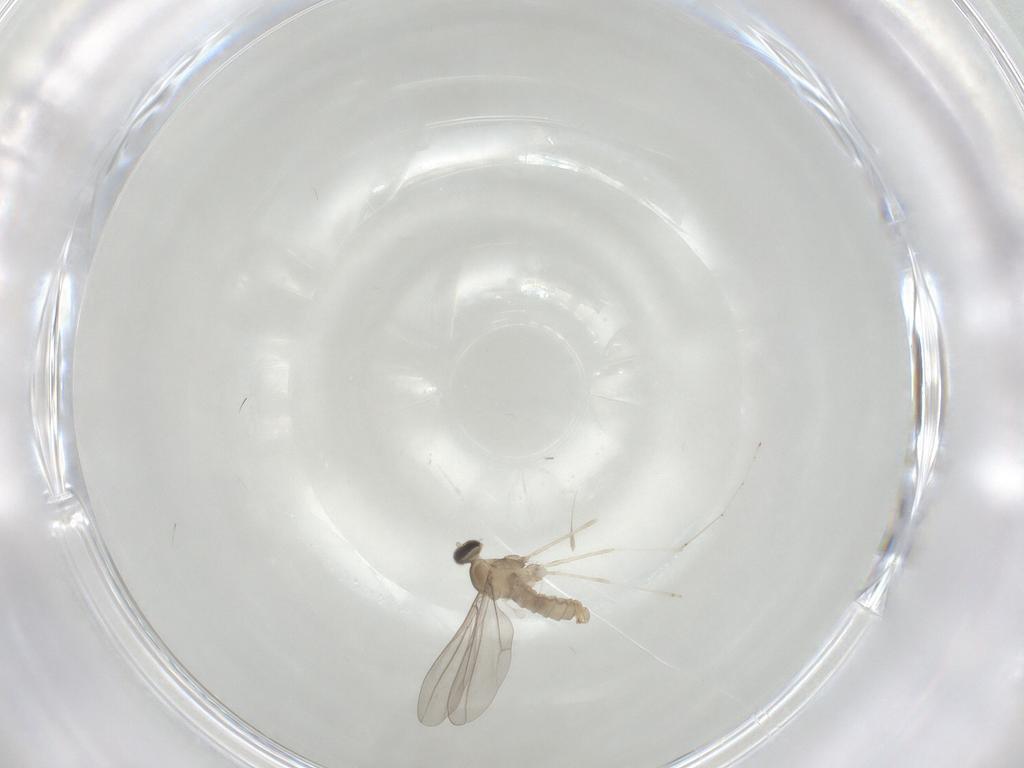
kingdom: Animalia
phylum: Arthropoda
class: Insecta
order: Diptera
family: Cecidomyiidae
